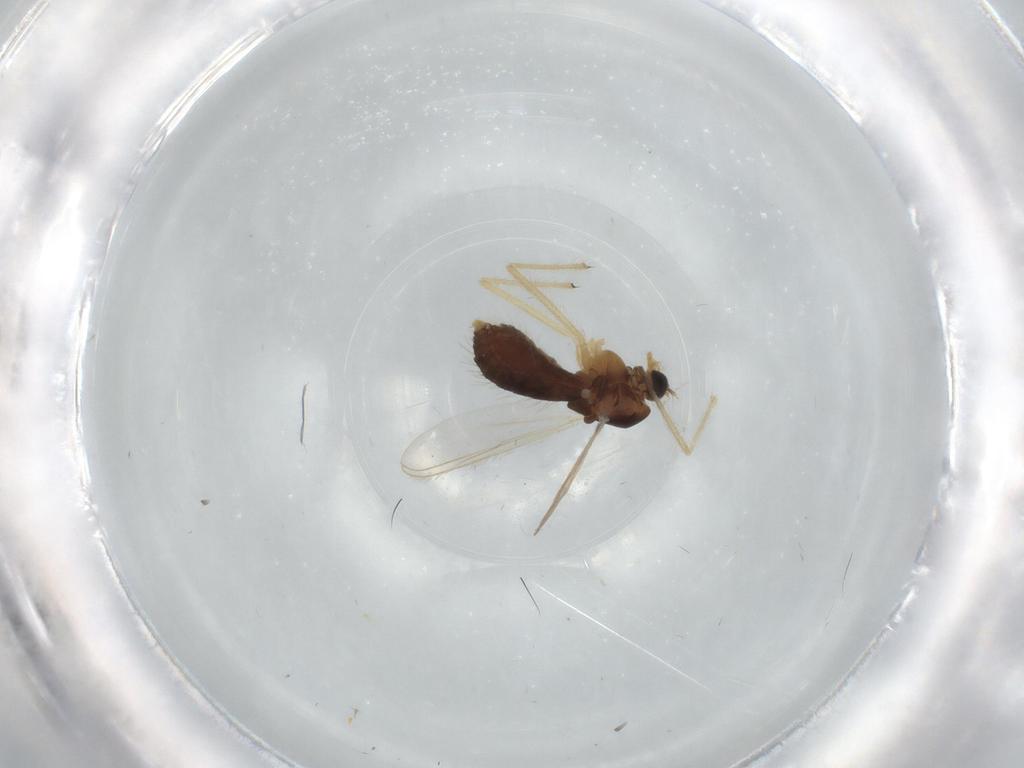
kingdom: Animalia
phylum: Arthropoda
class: Insecta
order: Diptera
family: Chironomidae
